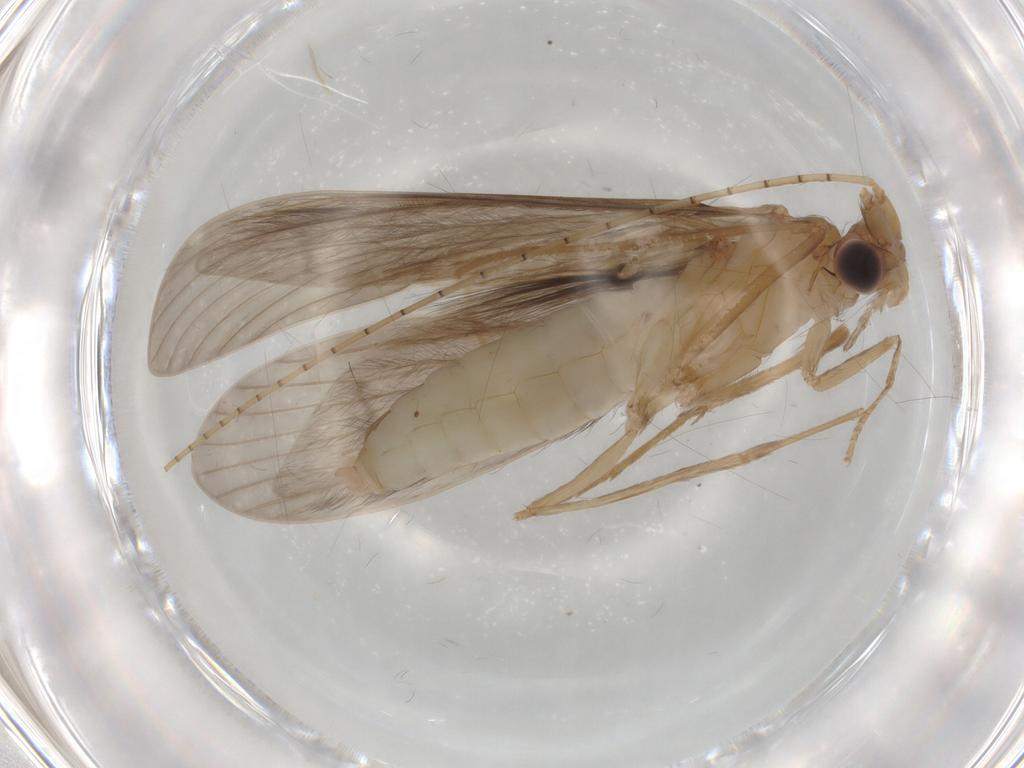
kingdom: Animalia
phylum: Arthropoda
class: Insecta
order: Trichoptera
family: Leptoceridae
